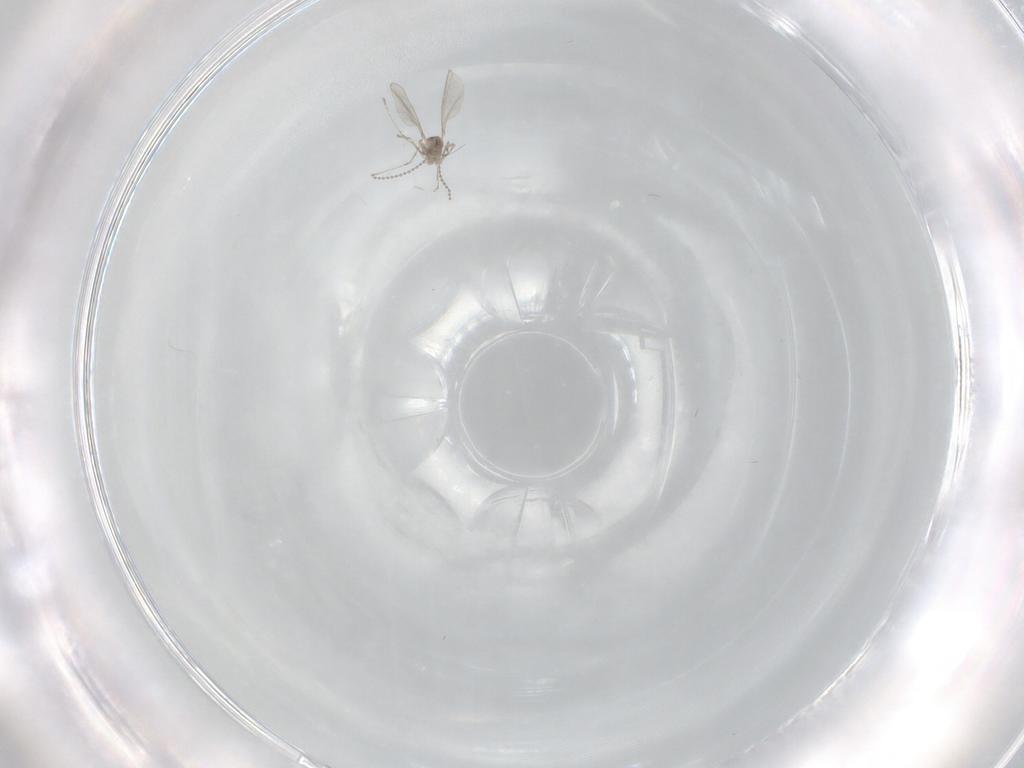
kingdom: Animalia
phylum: Arthropoda
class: Insecta
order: Diptera
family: Cecidomyiidae
